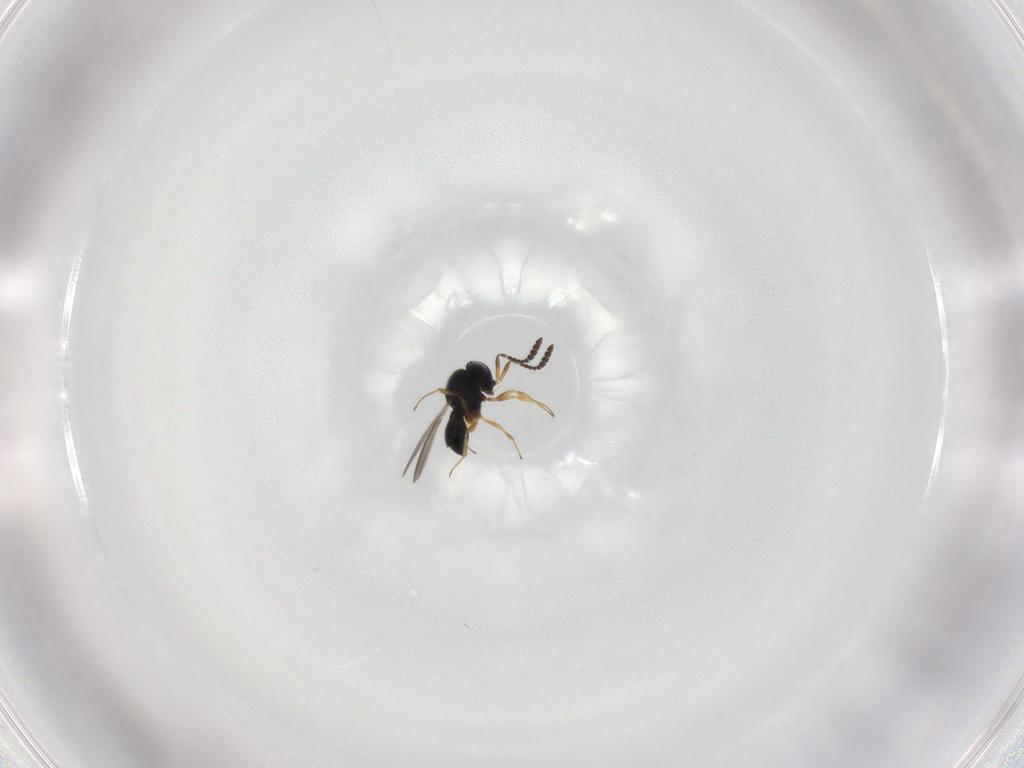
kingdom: Animalia
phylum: Arthropoda
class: Insecta
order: Hymenoptera
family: Scelionidae
